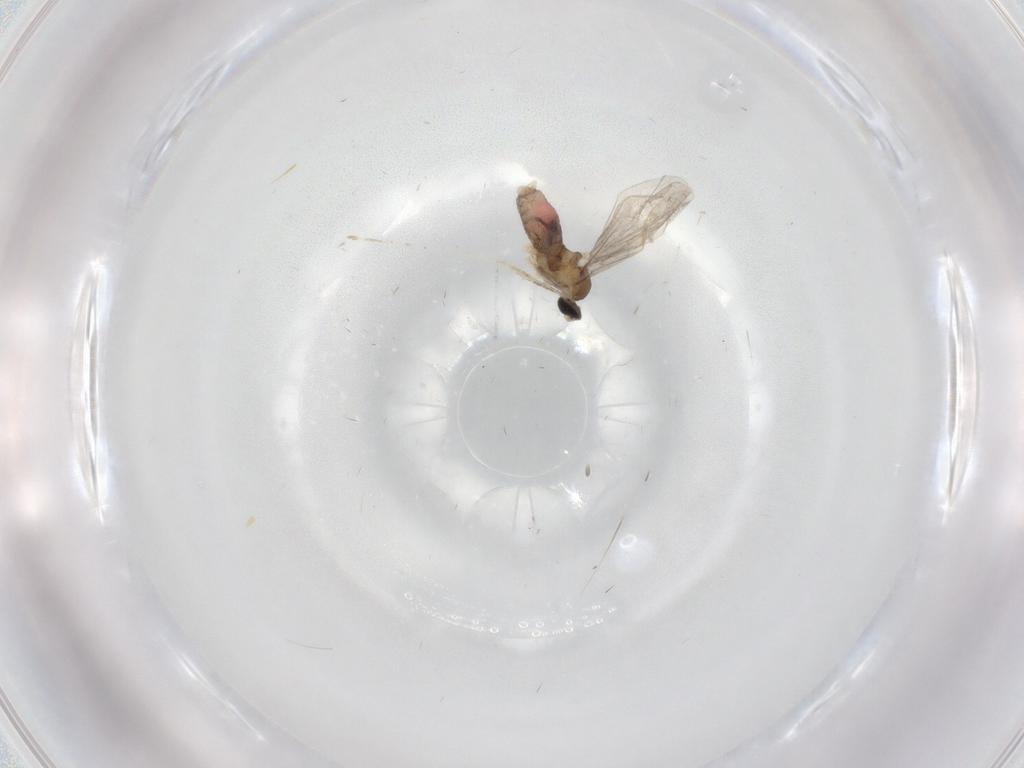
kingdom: Animalia
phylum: Arthropoda
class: Insecta
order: Diptera
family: Cecidomyiidae
